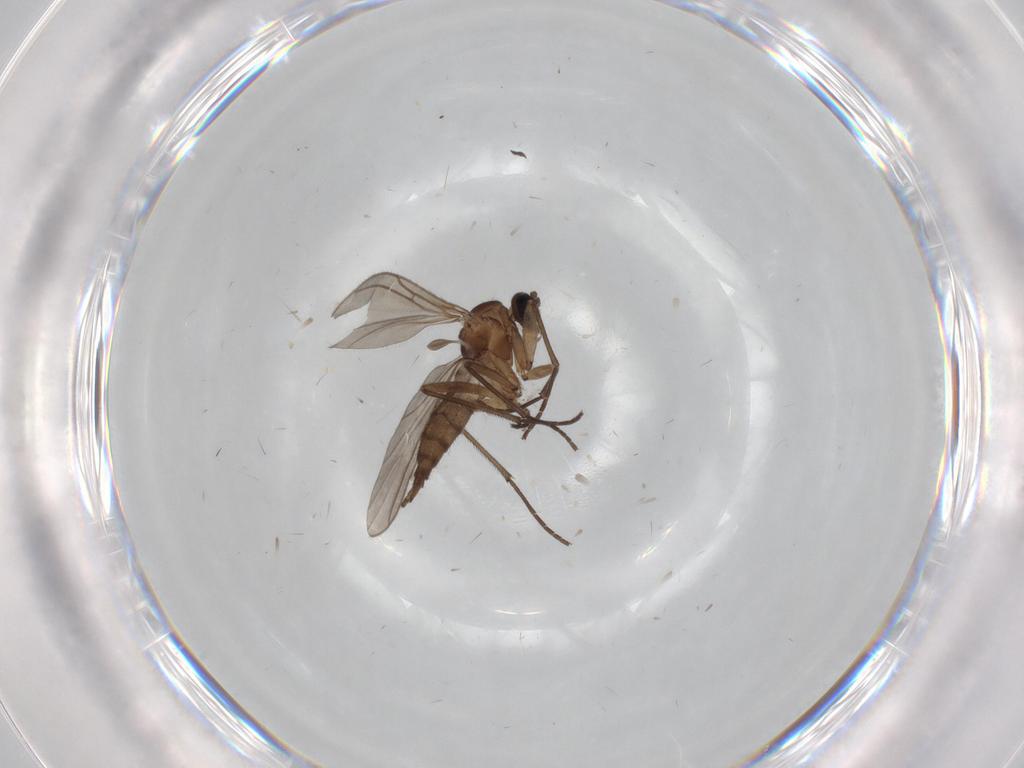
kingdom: Animalia
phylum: Arthropoda
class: Insecta
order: Diptera
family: Sciaridae
